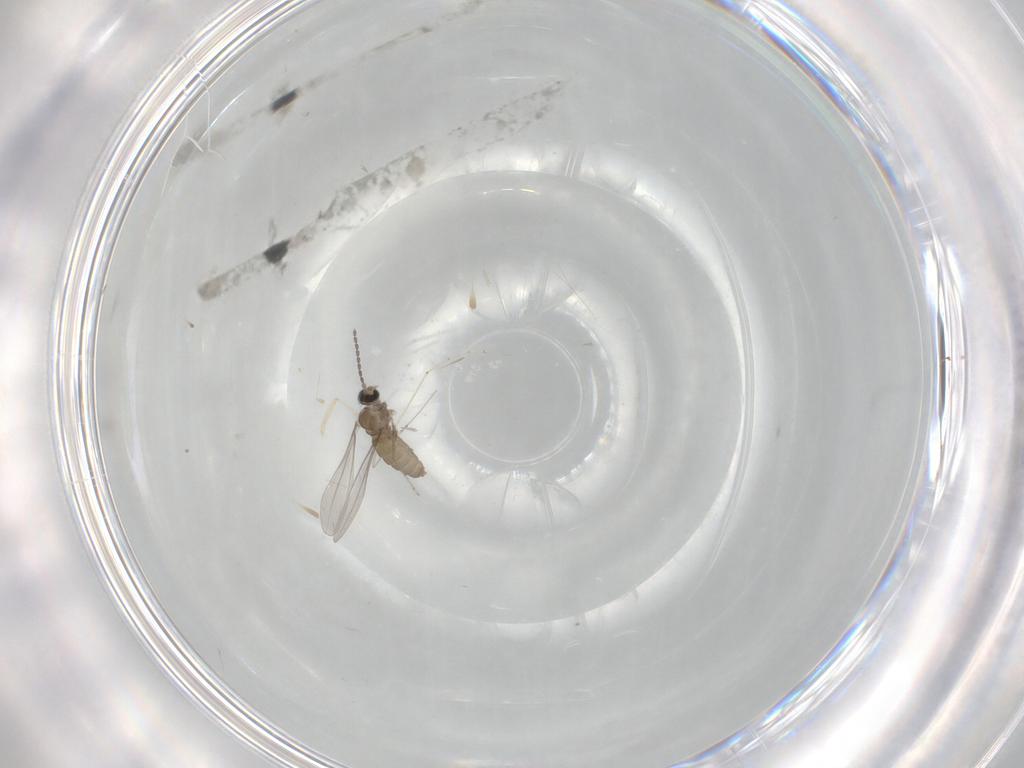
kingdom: Animalia
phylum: Arthropoda
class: Insecta
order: Diptera
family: Cecidomyiidae
